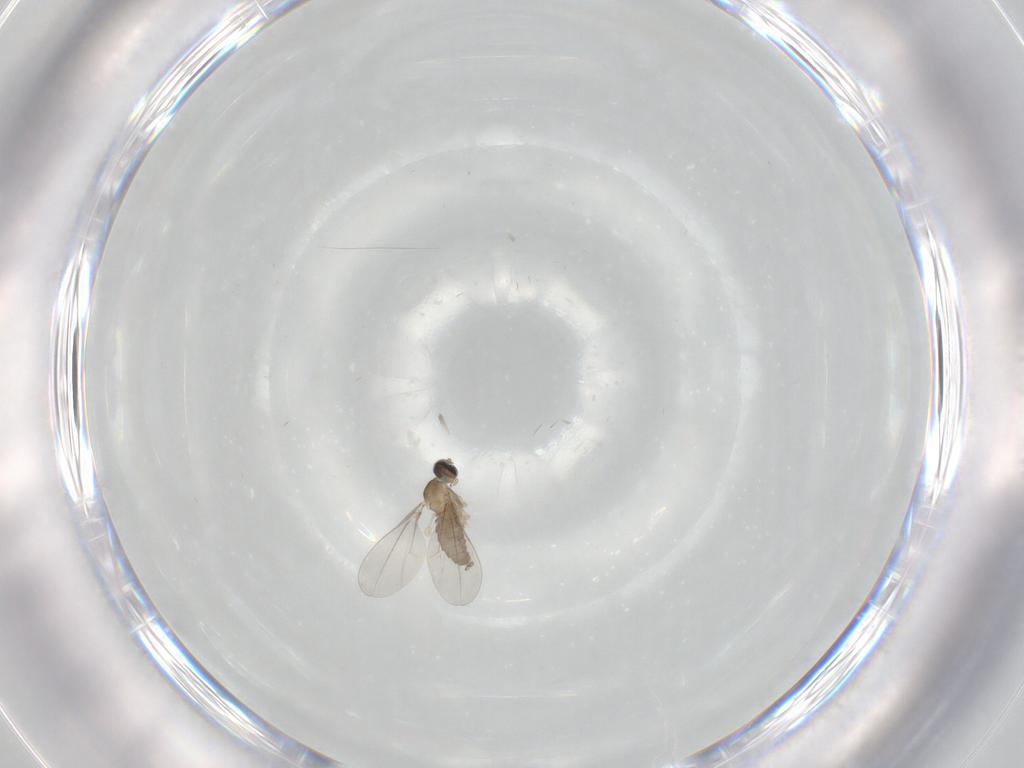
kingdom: Animalia
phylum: Arthropoda
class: Insecta
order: Diptera
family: Cecidomyiidae
